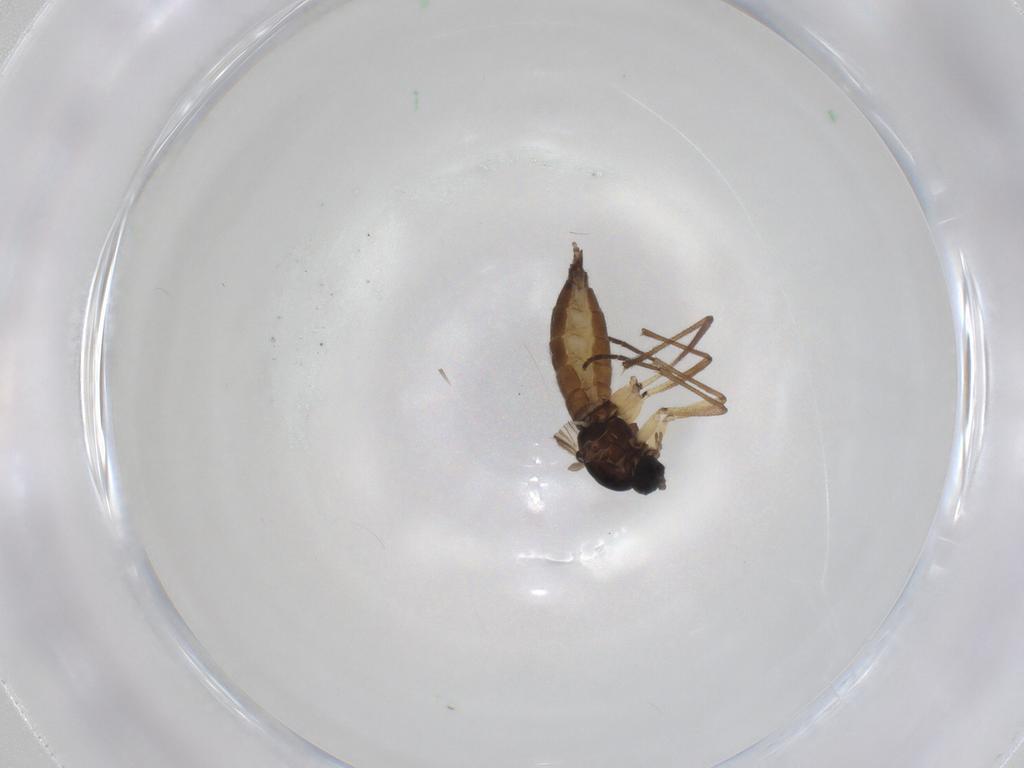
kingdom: Animalia
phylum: Arthropoda
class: Insecta
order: Diptera
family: Sciaridae
